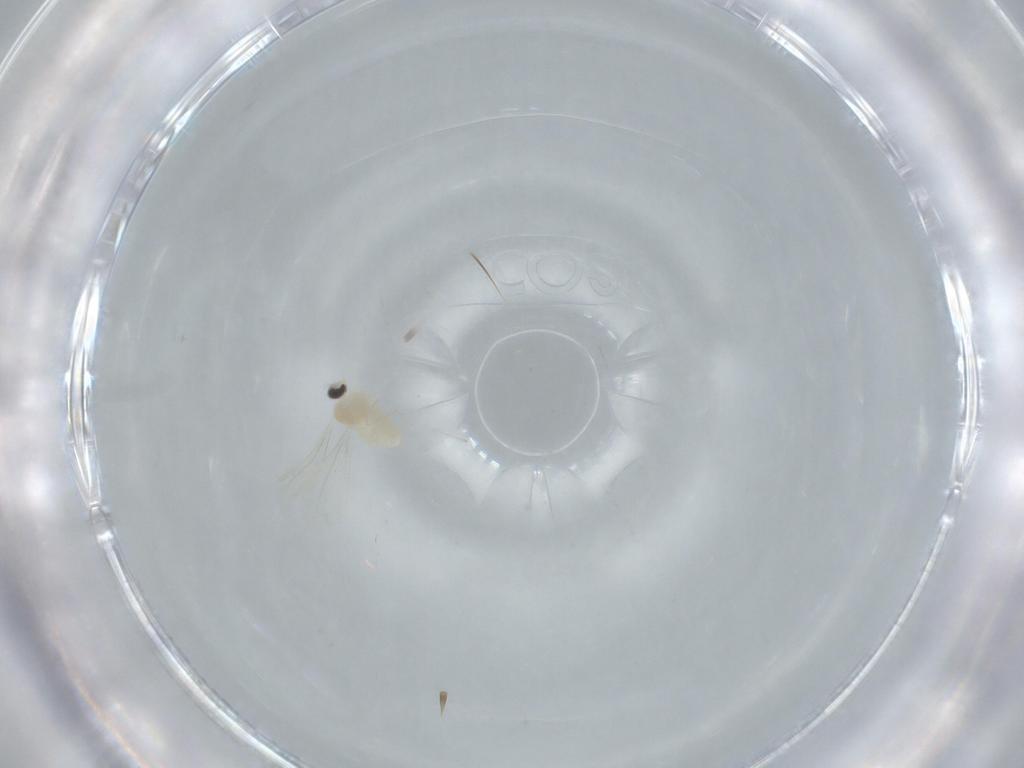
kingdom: Animalia
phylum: Arthropoda
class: Insecta
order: Diptera
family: Cecidomyiidae
